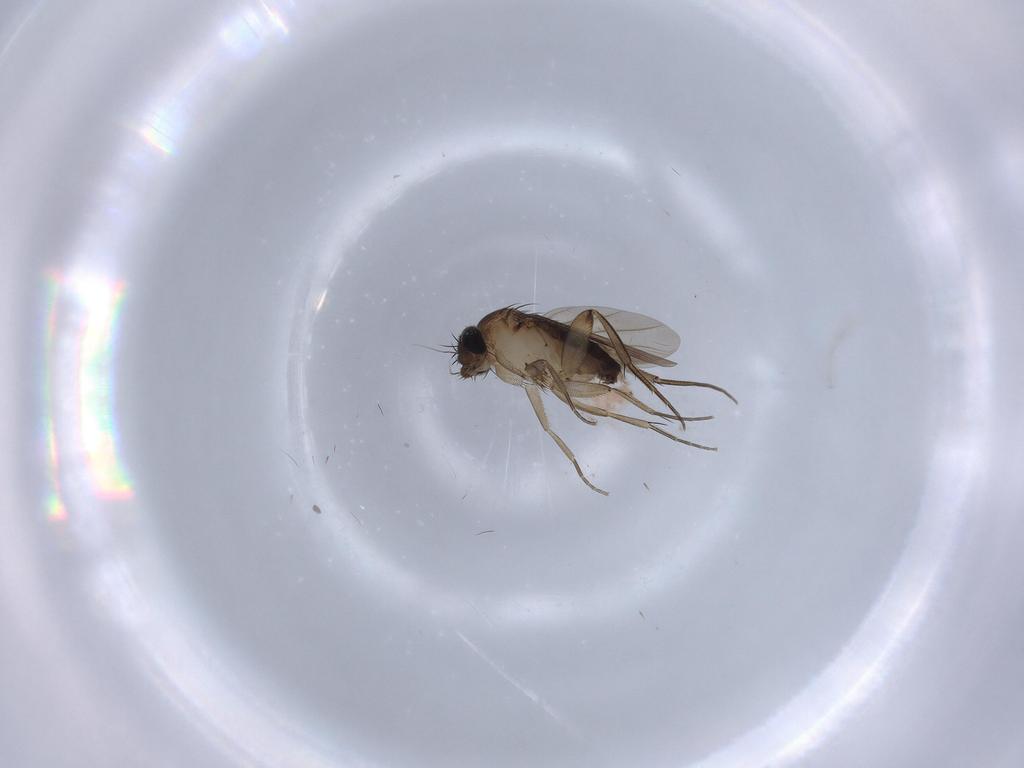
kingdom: Animalia
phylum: Arthropoda
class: Insecta
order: Diptera
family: Phoridae
